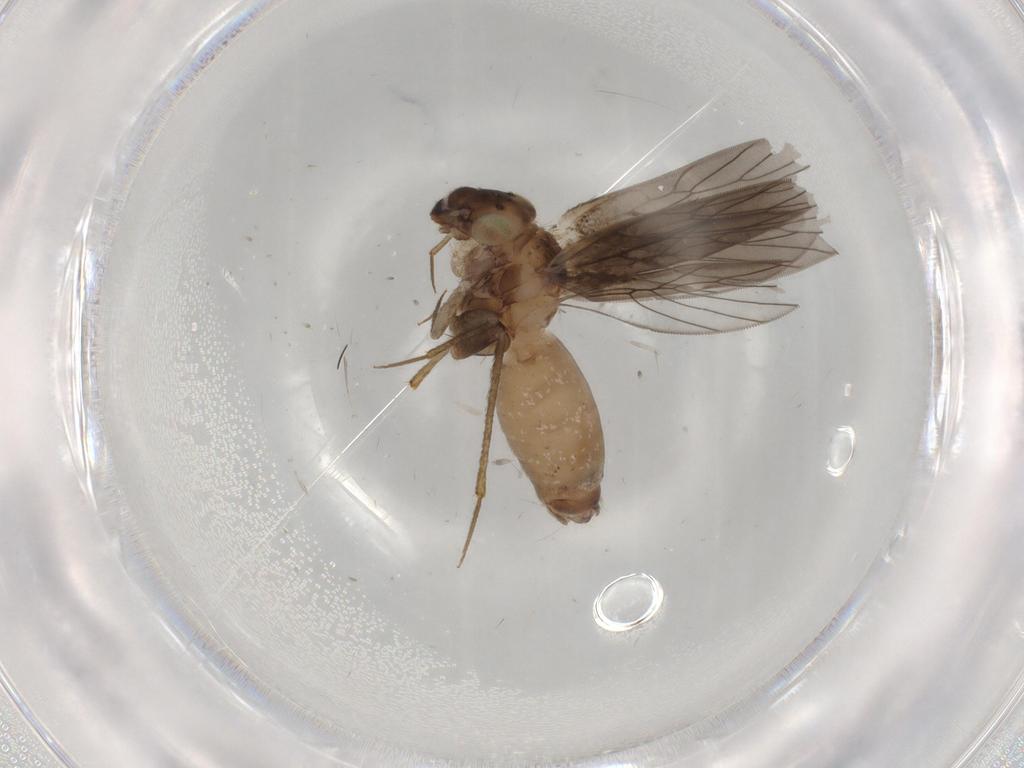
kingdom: Animalia
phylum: Arthropoda
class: Insecta
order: Psocodea
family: Lepidopsocidae
